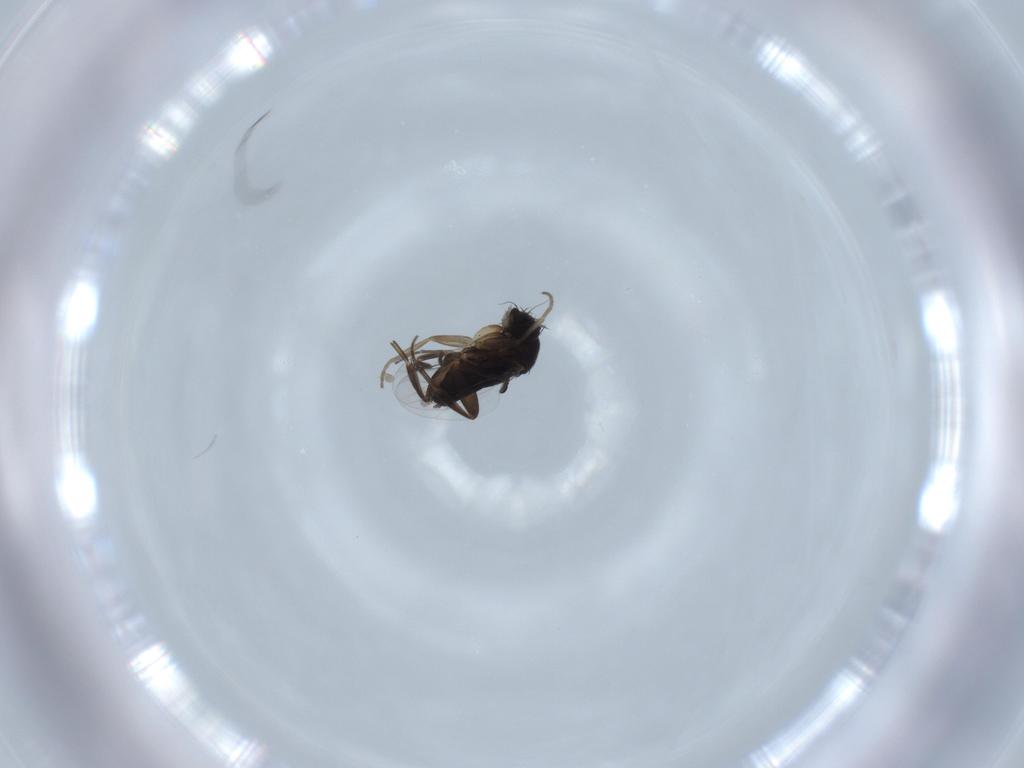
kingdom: Animalia
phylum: Arthropoda
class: Insecta
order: Diptera
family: Phoridae
